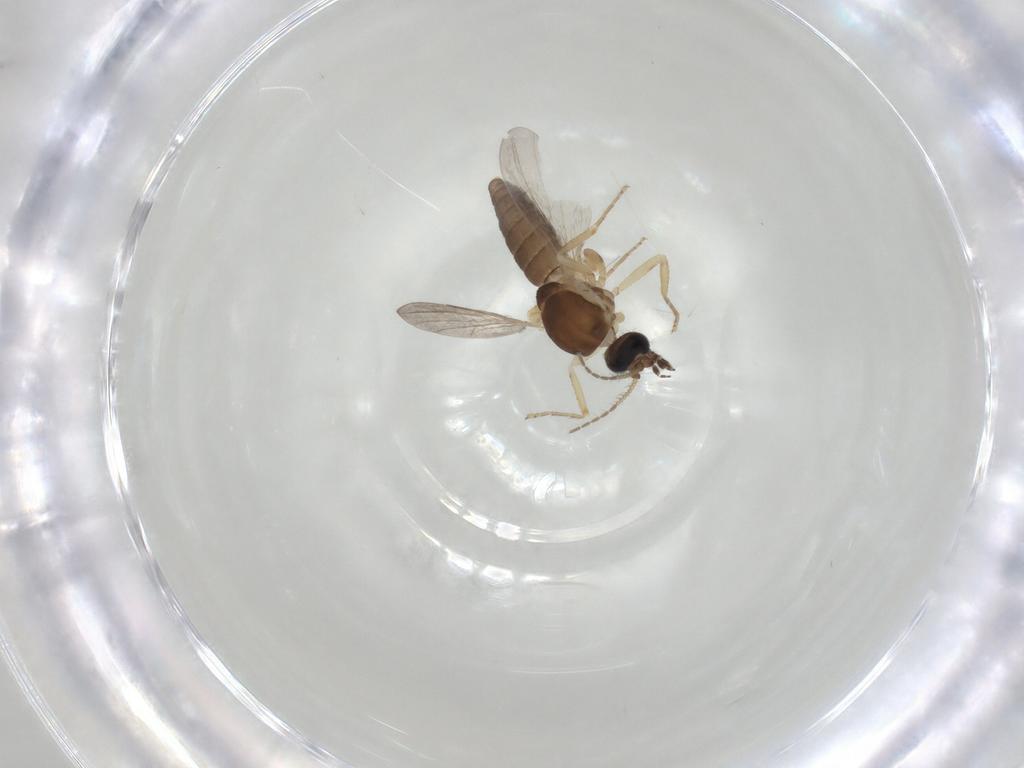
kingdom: Animalia
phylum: Arthropoda
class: Insecta
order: Diptera
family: Ceratopogonidae
